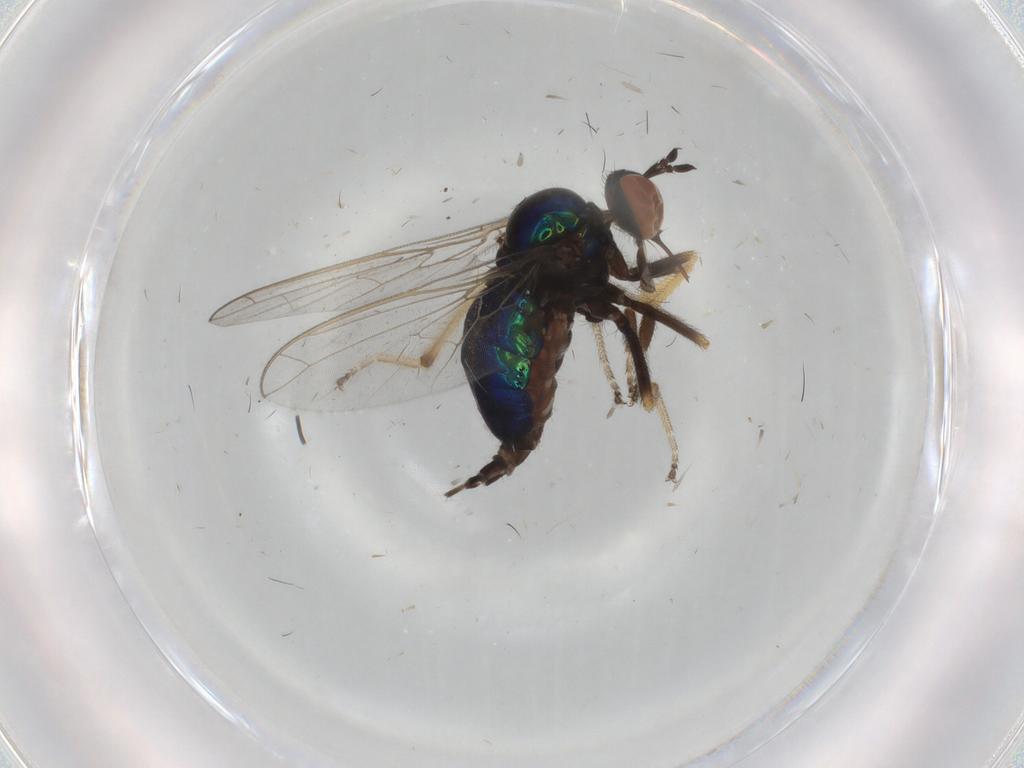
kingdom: Animalia
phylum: Arthropoda
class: Insecta
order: Diptera
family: Empididae
